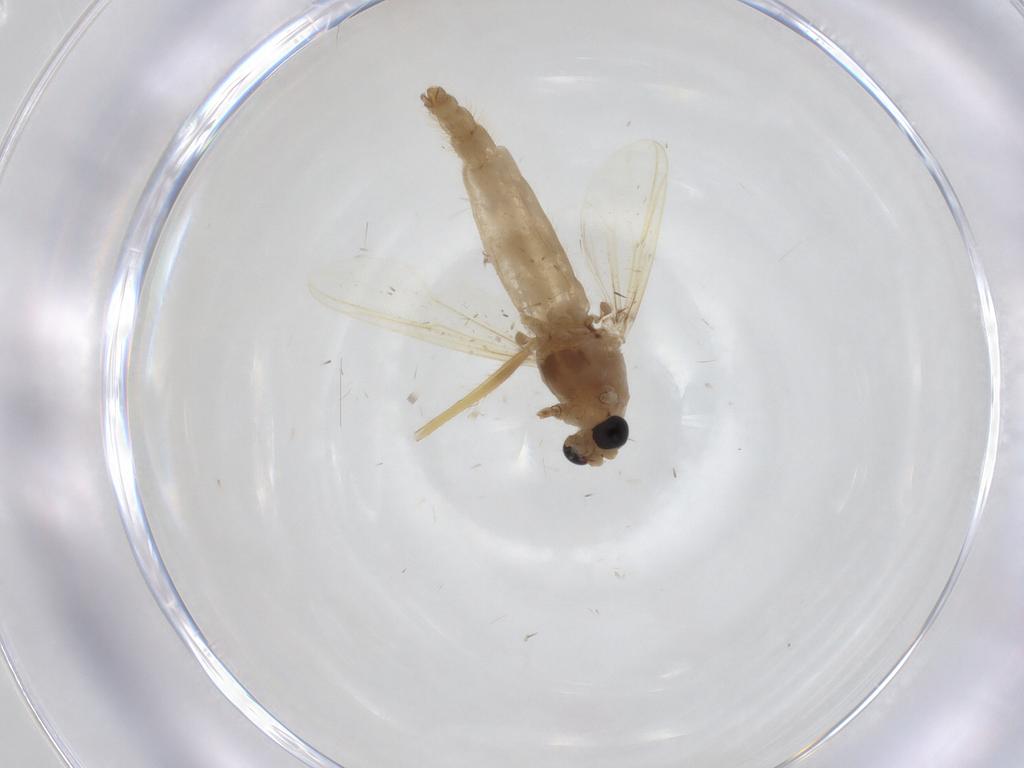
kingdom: Animalia
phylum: Arthropoda
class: Insecta
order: Diptera
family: Chironomidae
